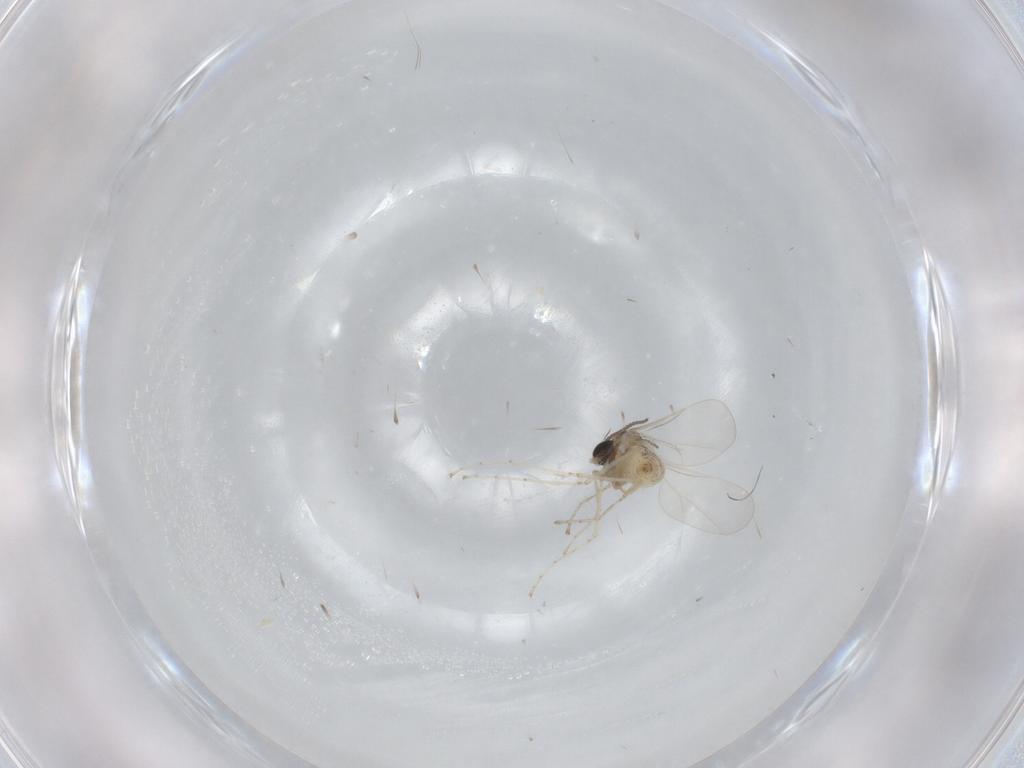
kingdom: Animalia
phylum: Arthropoda
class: Insecta
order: Diptera
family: Cecidomyiidae
